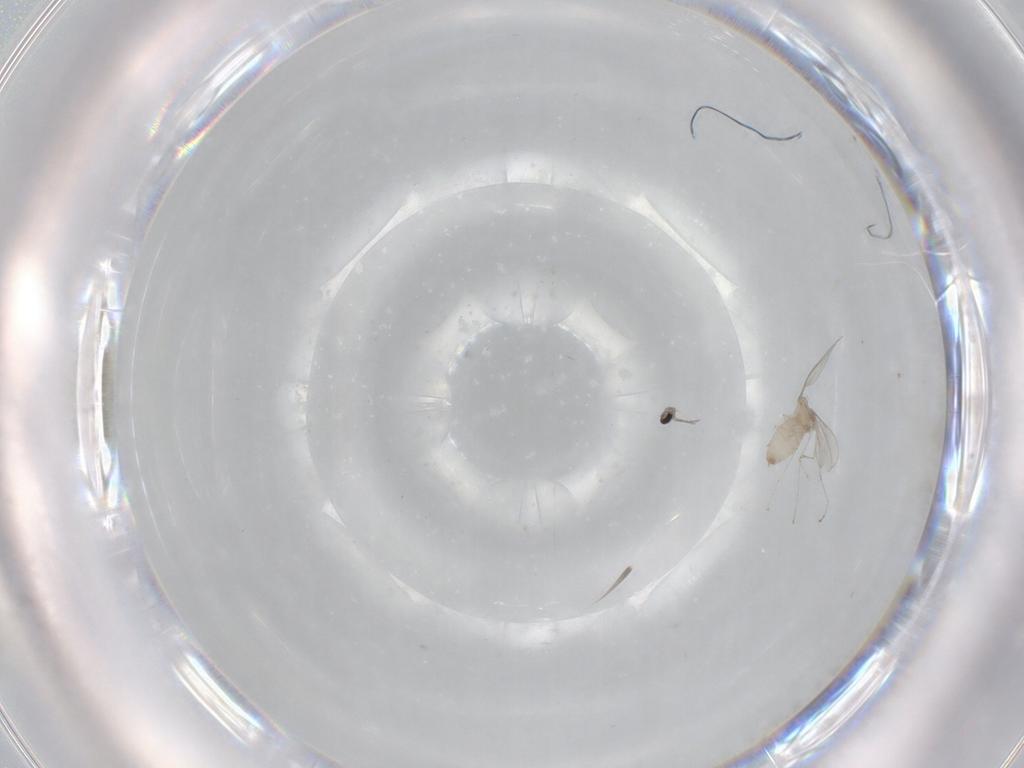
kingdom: Animalia
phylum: Arthropoda
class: Insecta
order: Diptera
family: Cecidomyiidae
